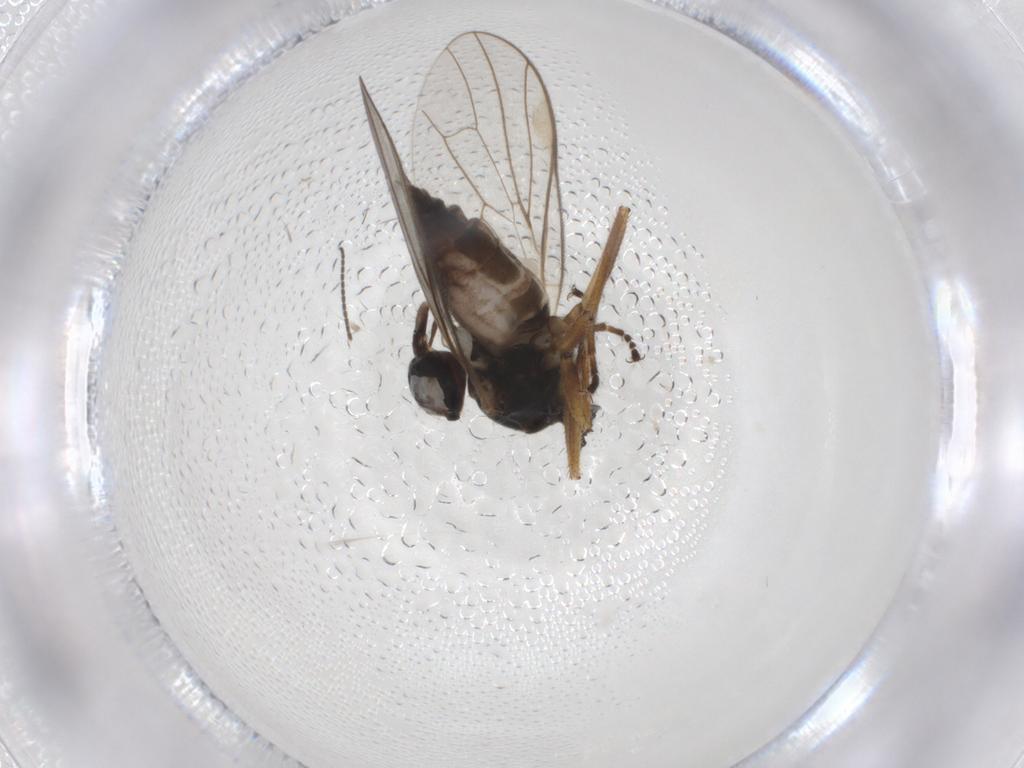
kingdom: Animalia
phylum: Arthropoda
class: Insecta
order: Diptera
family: Hybotidae
